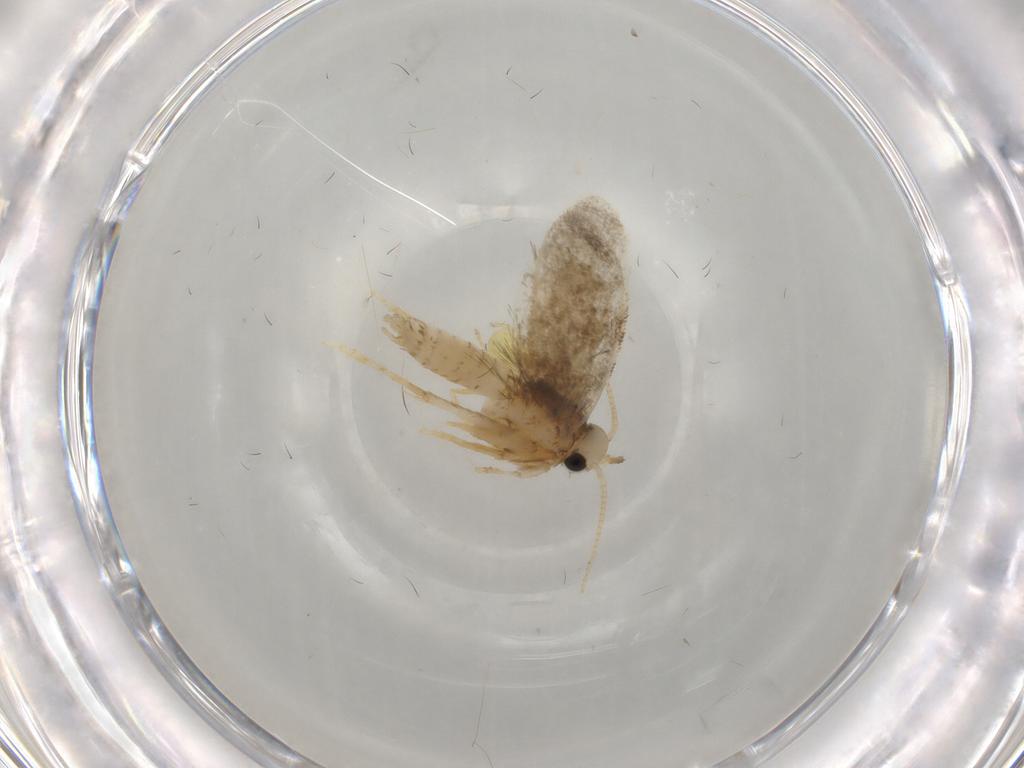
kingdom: Animalia
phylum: Arthropoda
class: Insecta
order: Lepidoptera
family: Psychidae
